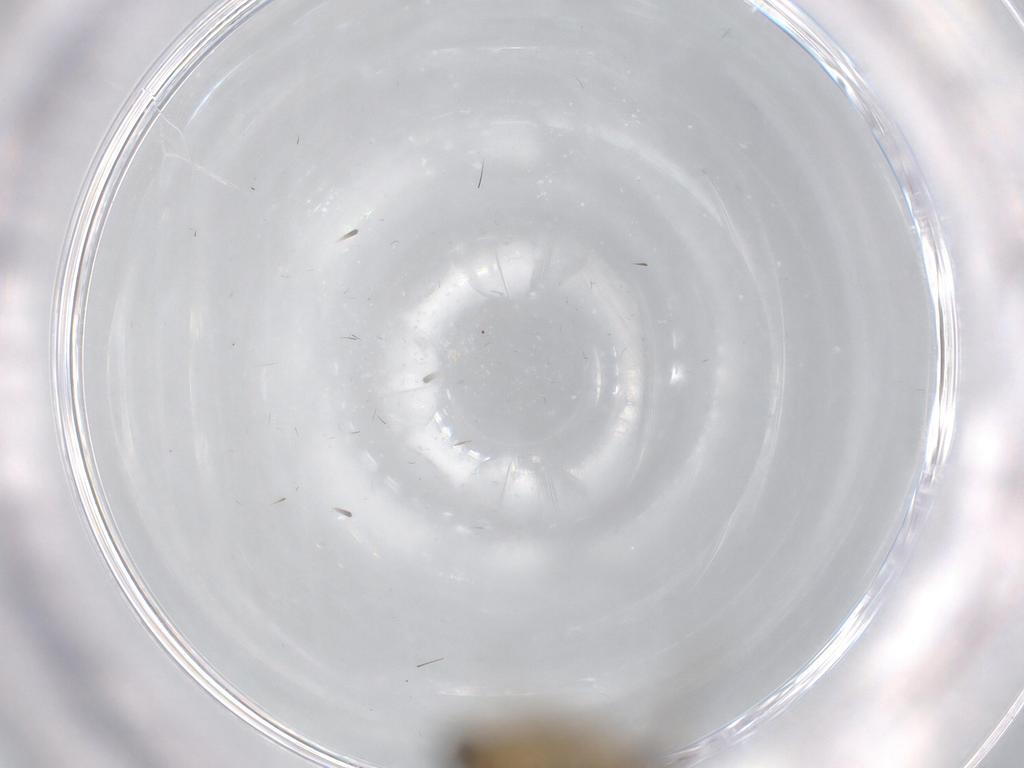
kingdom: Animalia
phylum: Arthropoda
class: Insecta
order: Diptera
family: Phoridae
